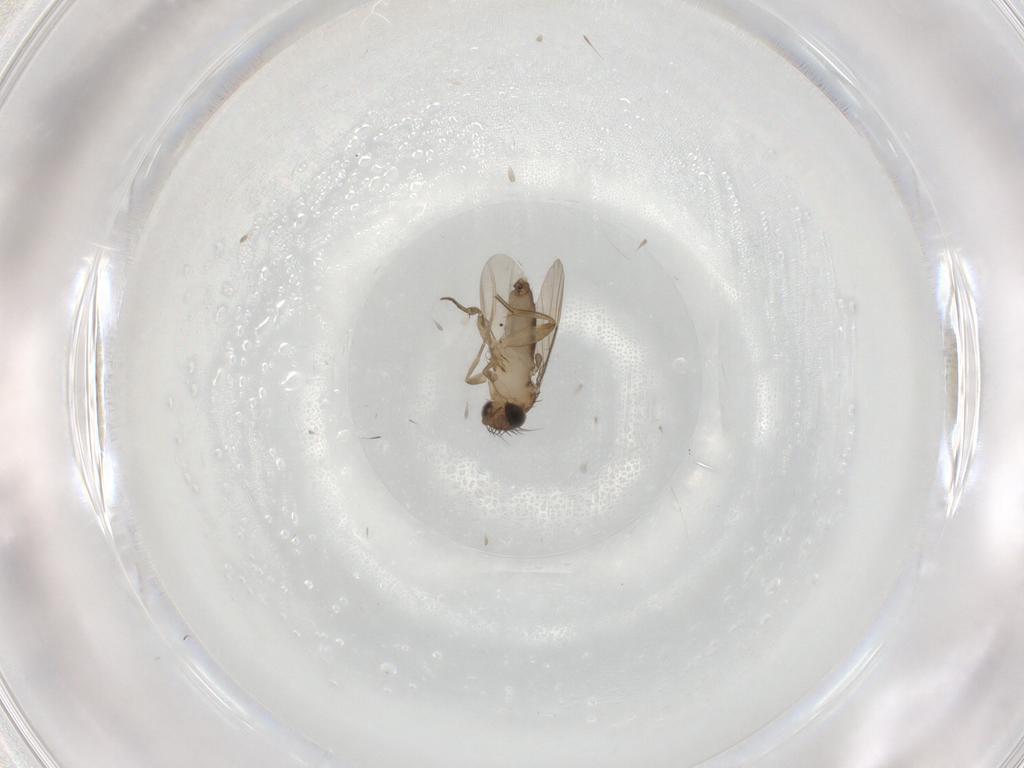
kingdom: Animalia
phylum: Arthropoda
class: Insecta
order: Diptera
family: Phoridae
